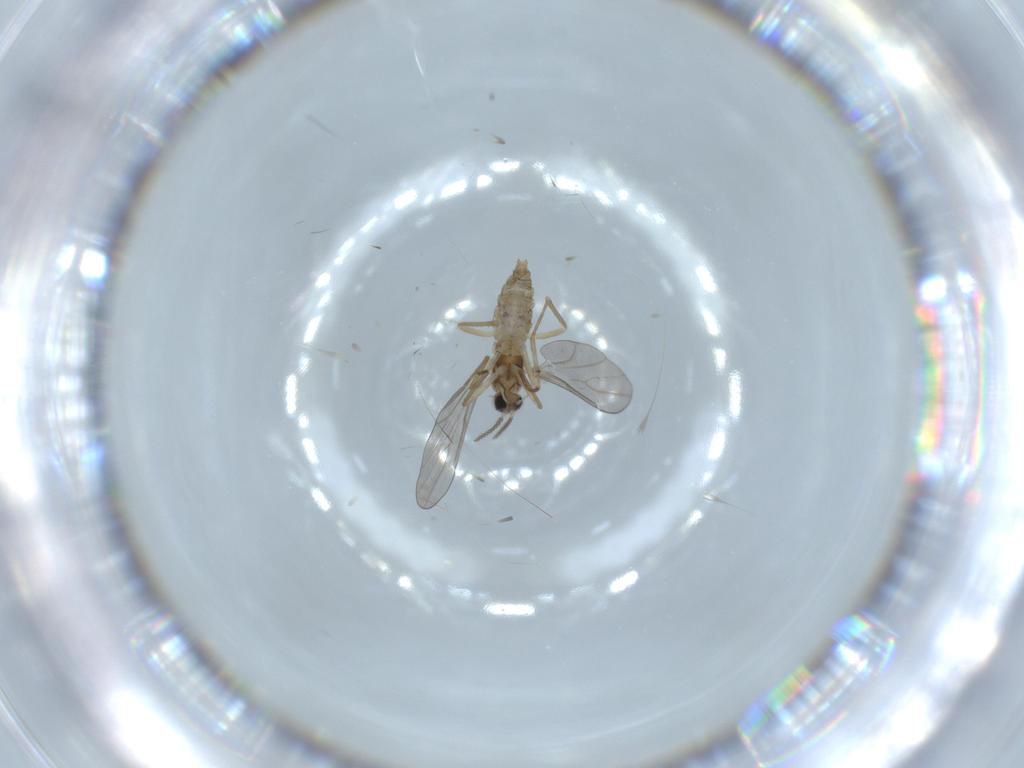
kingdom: Animalia
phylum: Arthropoda
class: Insecta
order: Diptera
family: Cecidomyiidae
